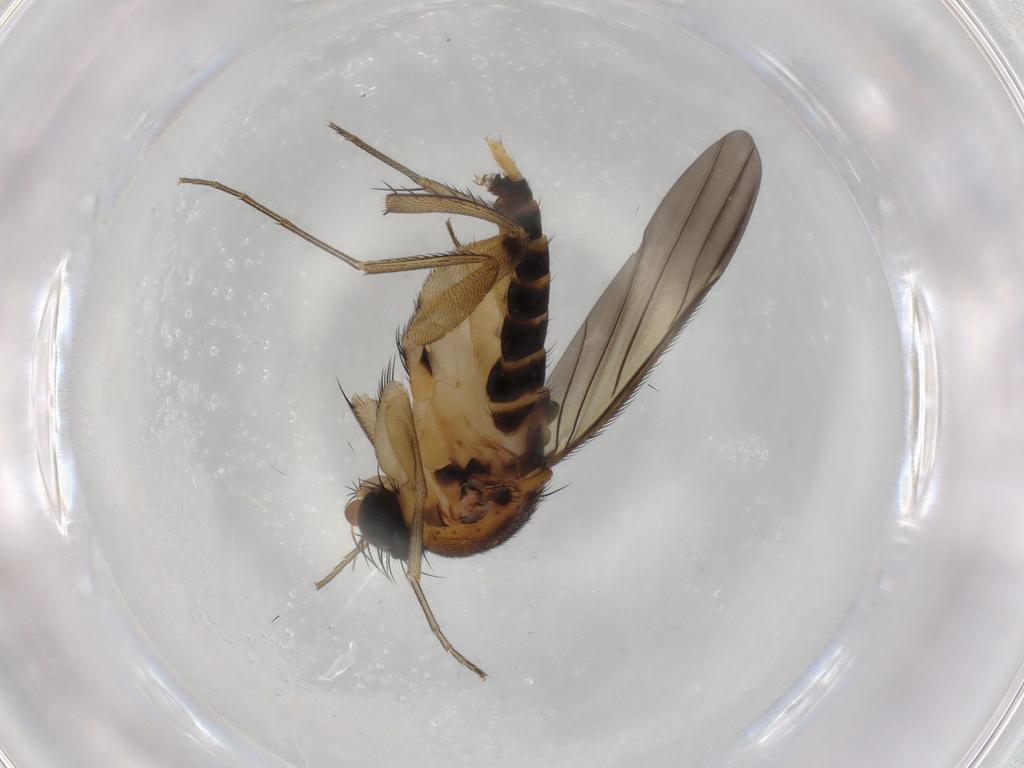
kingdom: Animalia
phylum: Arthropoda
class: Insecta
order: Diptera
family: Phoridae
